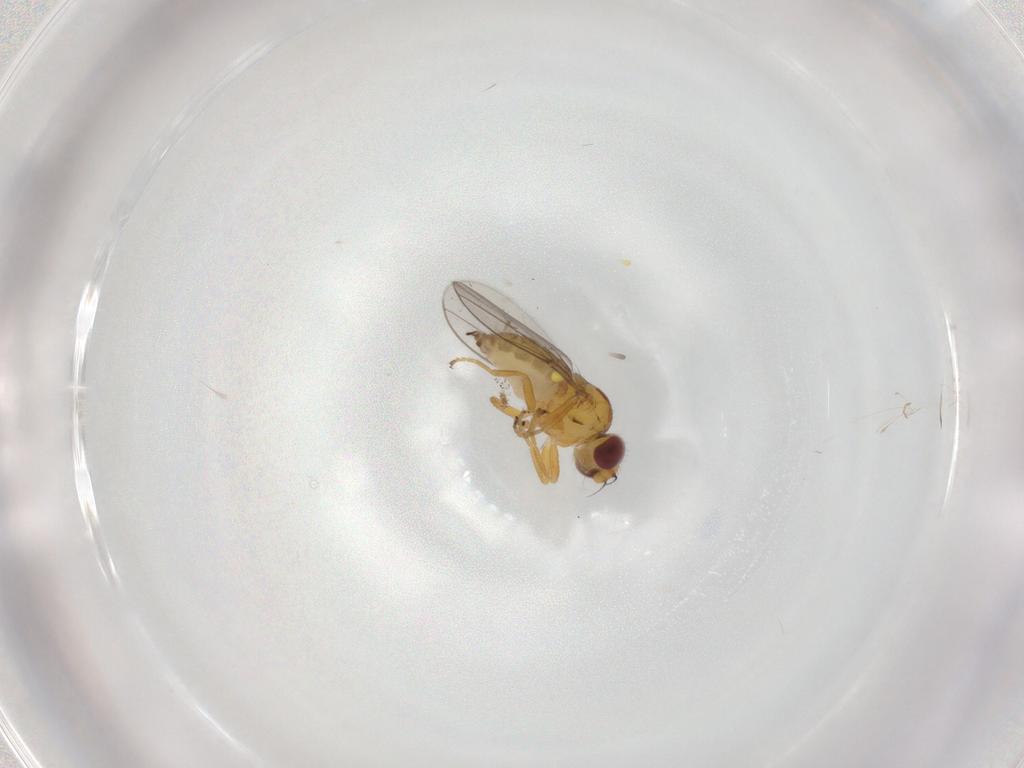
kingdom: Animalia
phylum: Arthropoda
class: Insecta
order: Diptera
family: Chloropidae
